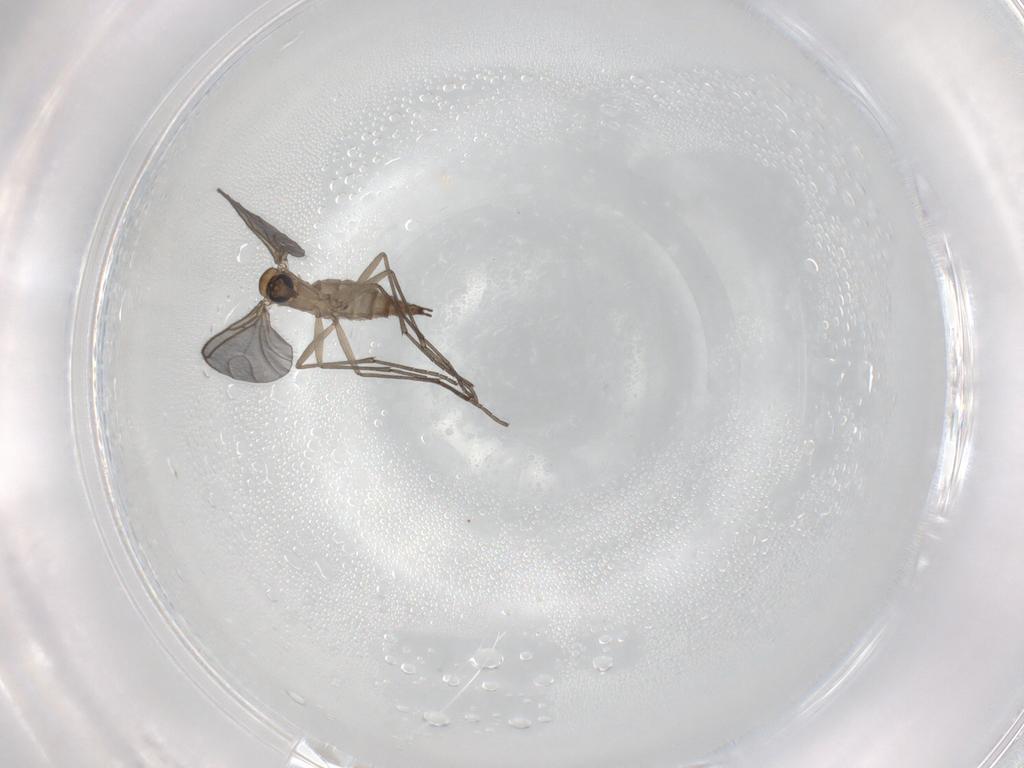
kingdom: Animalia
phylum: Arthropoda
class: Insecta
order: Diptera
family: Sciaridae
